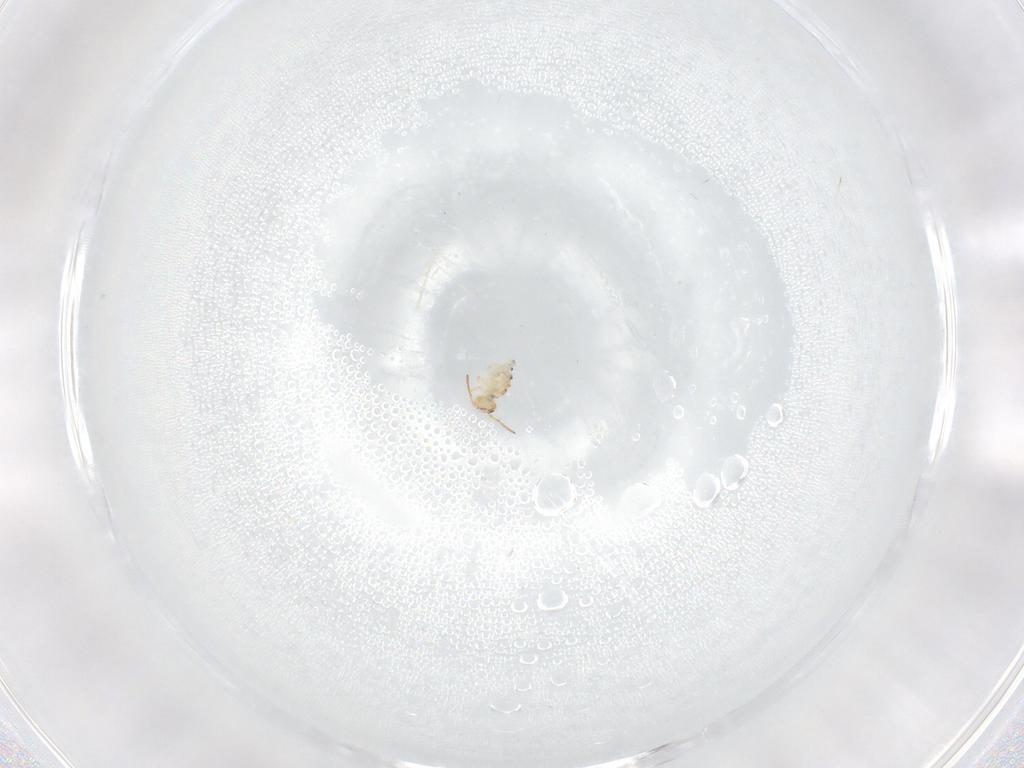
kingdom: Animalia
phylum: Arthropoda
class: Collembola
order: Symphypleona
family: Bourletiellidae
